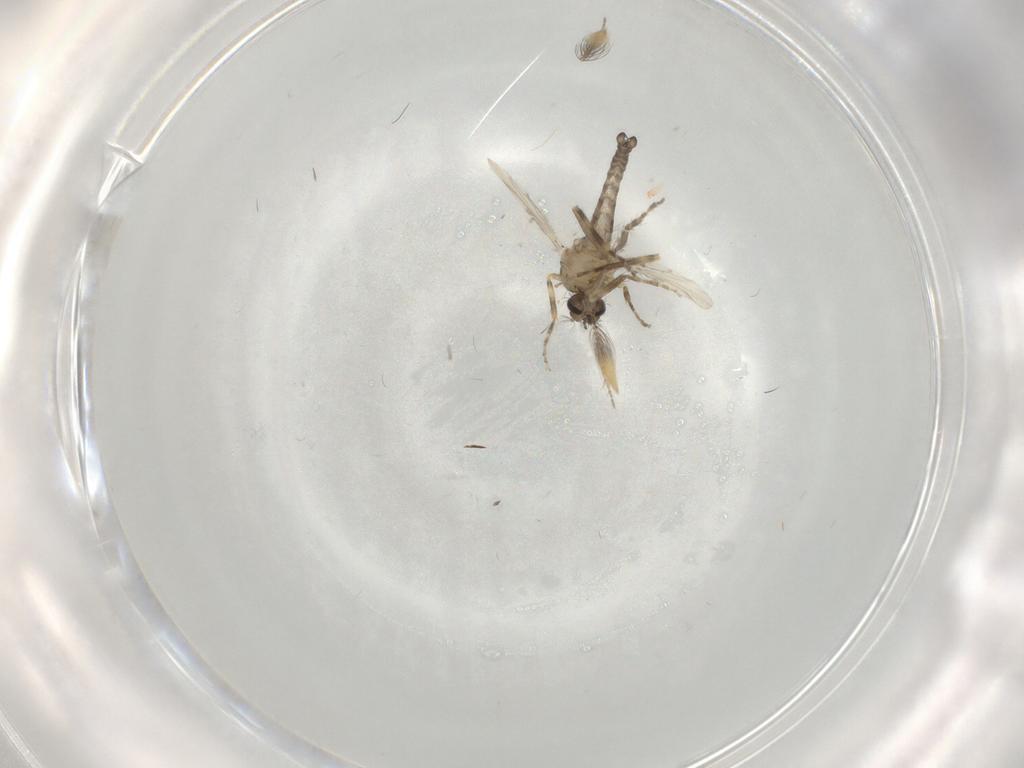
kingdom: Animalia
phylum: Arthropoda
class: Insecta
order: Diptera
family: Ceratopogonidae
